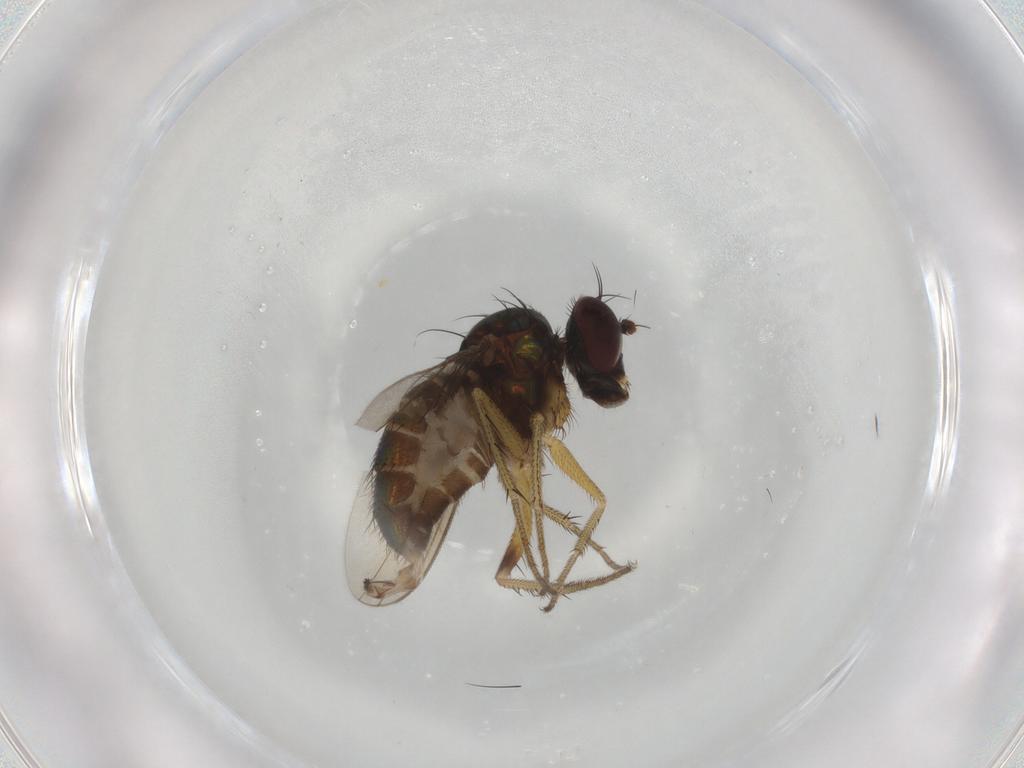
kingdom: Animalia
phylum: Arthropoda
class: Insecta
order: Diptera
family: Dolichopodidae
